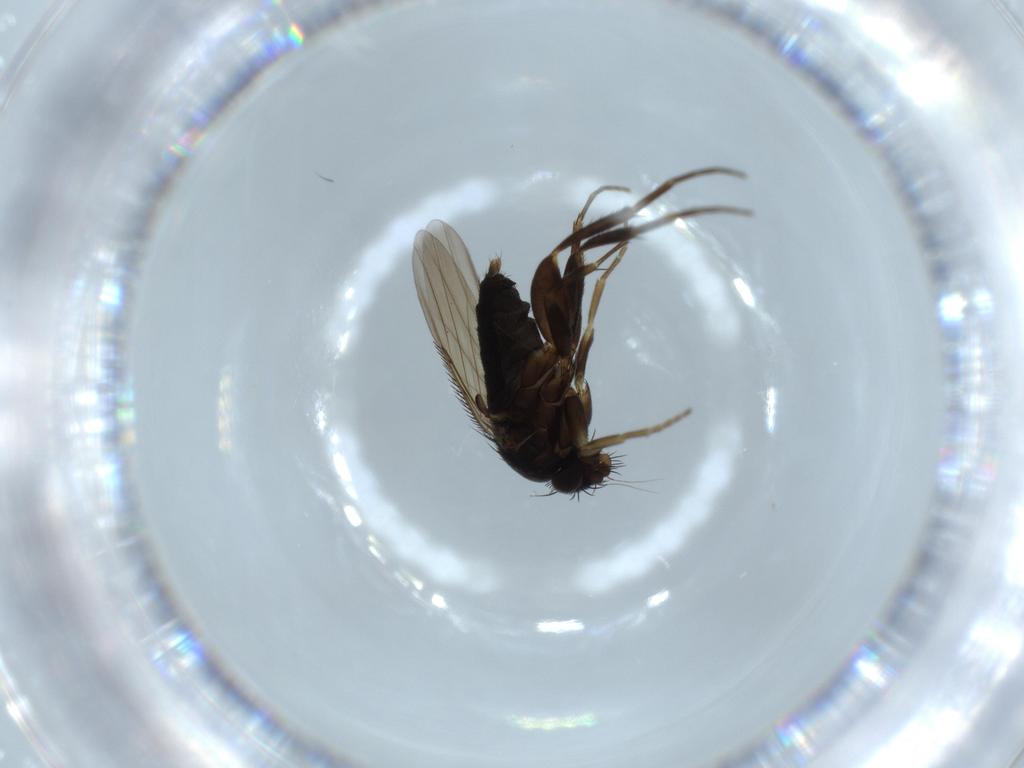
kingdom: Animalia
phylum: Arthropoda
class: Insecta
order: Diptera
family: Phoridae
